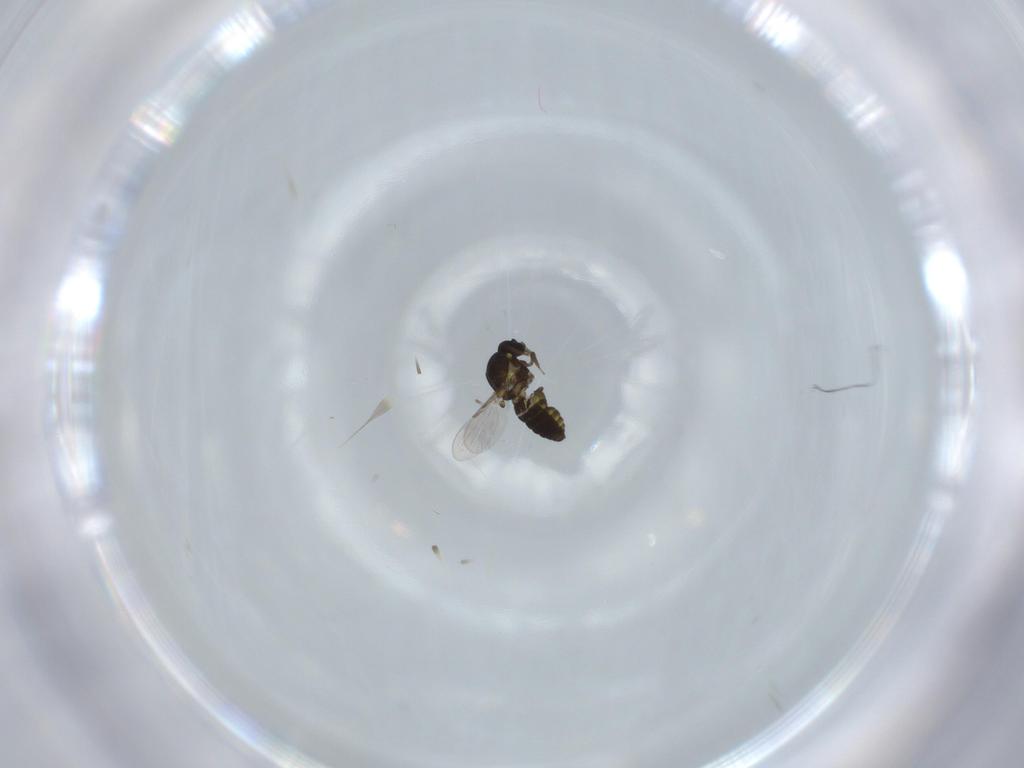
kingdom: Animalia
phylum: Arthropoda
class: Insecta
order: Diptera
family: Ceratopogonidae
